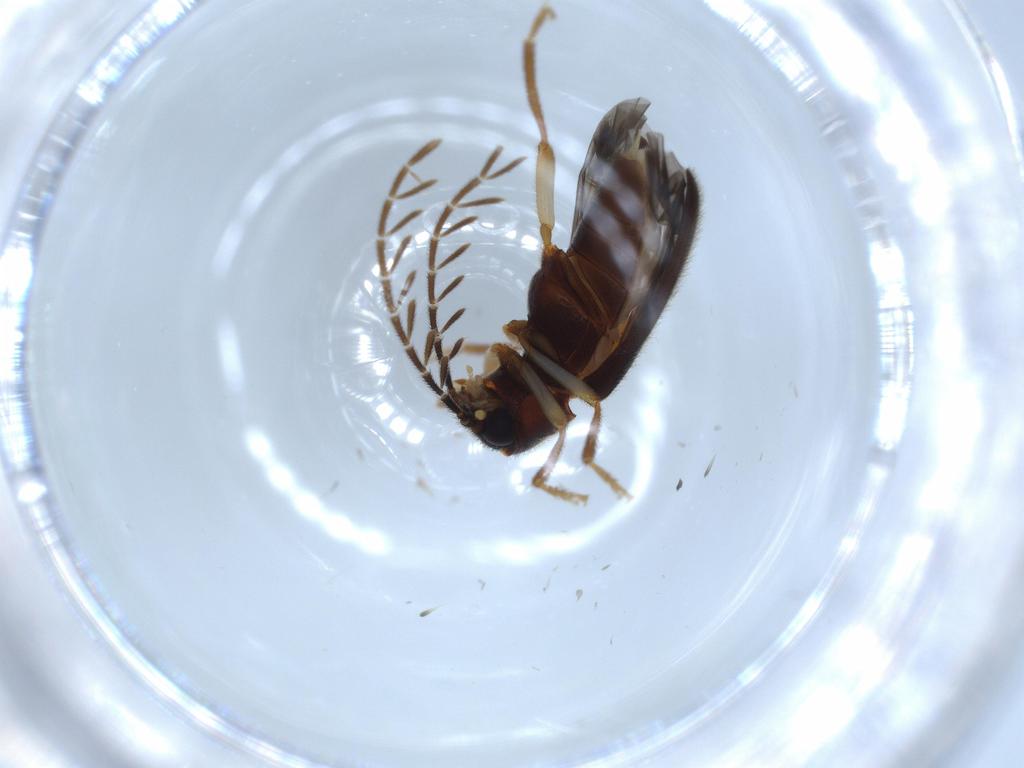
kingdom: Animalia
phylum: Arthropoda
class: Insecta
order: Coleoptera
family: Ptilodactylidae
